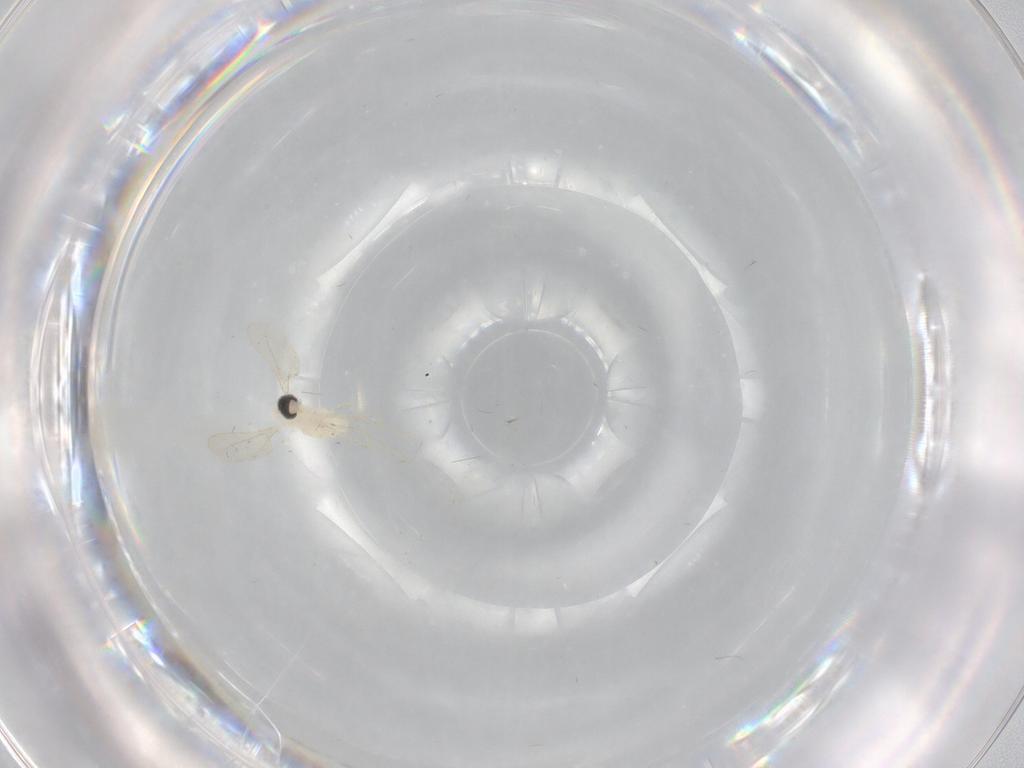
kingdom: Animalia
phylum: Arthropoda
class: Insecta
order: Diptera
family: Cecidomyiidae
